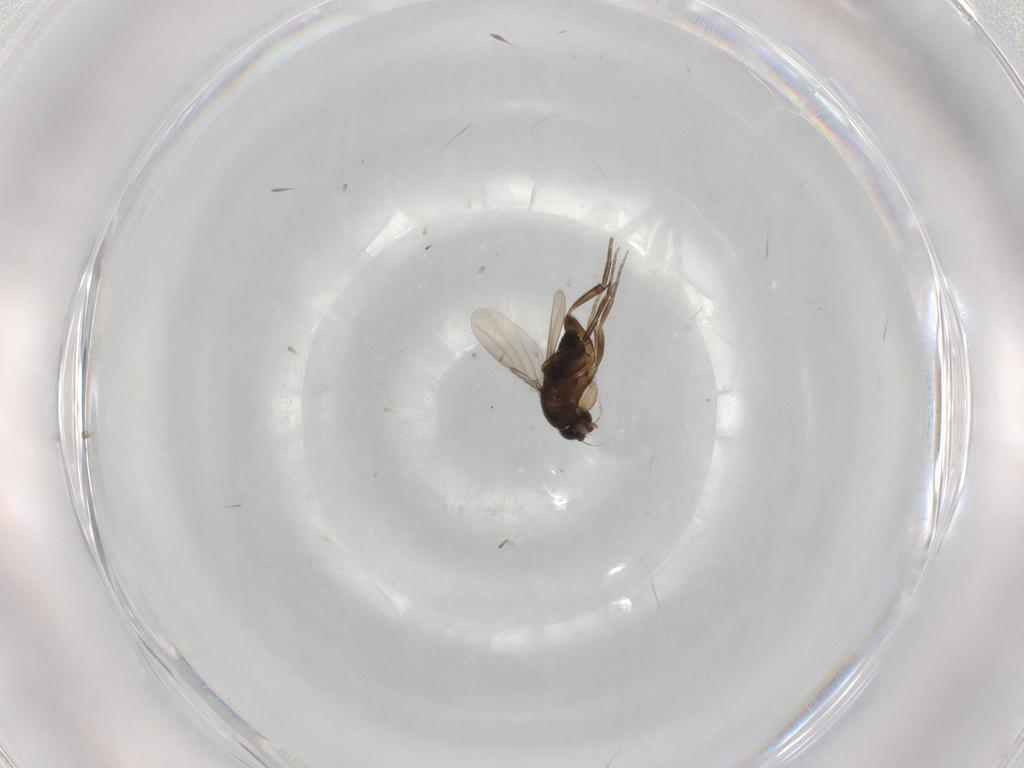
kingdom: Animalia
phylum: Arthropoda
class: Insecta
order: Diptera
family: Phoridae
